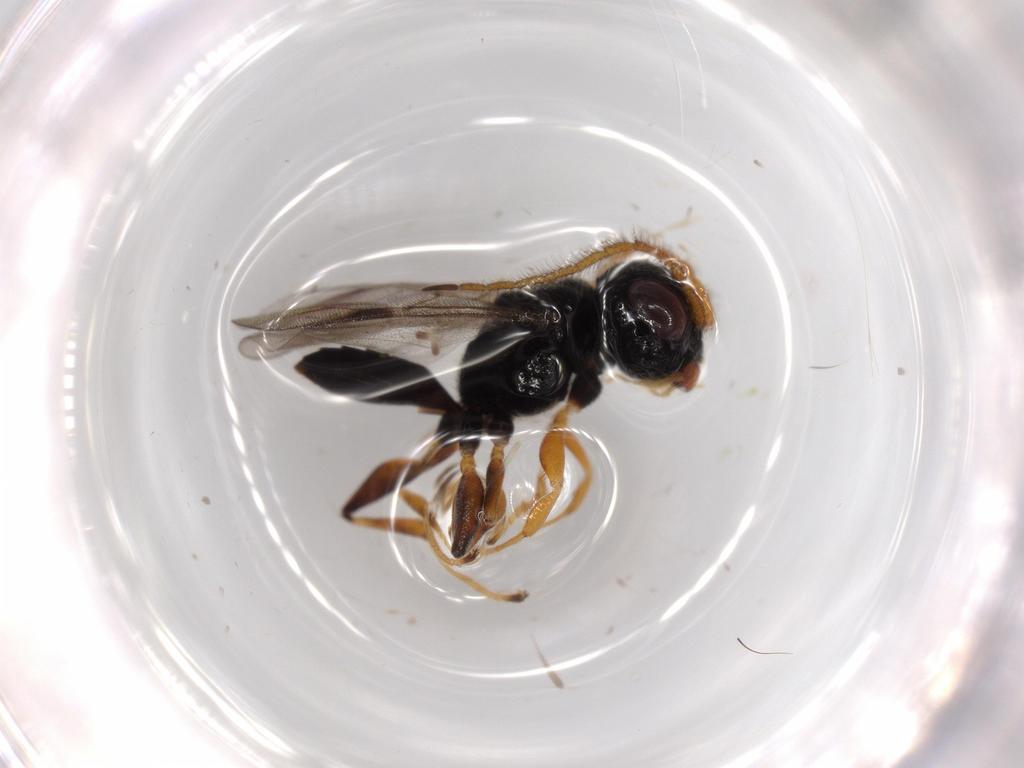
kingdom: Animalia
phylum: Arthropoda
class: Insecta
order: Hymenoptera
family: Dryinidae
